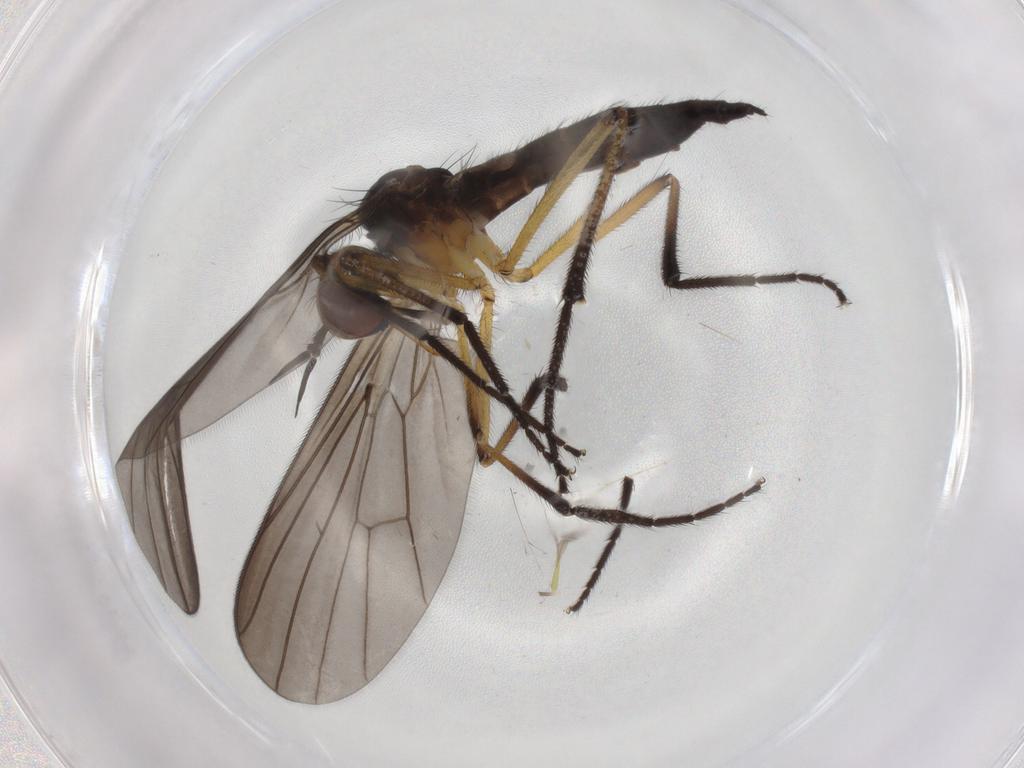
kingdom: Animalia
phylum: Arthropoda
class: Insecta
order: Diptera
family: Empididae
